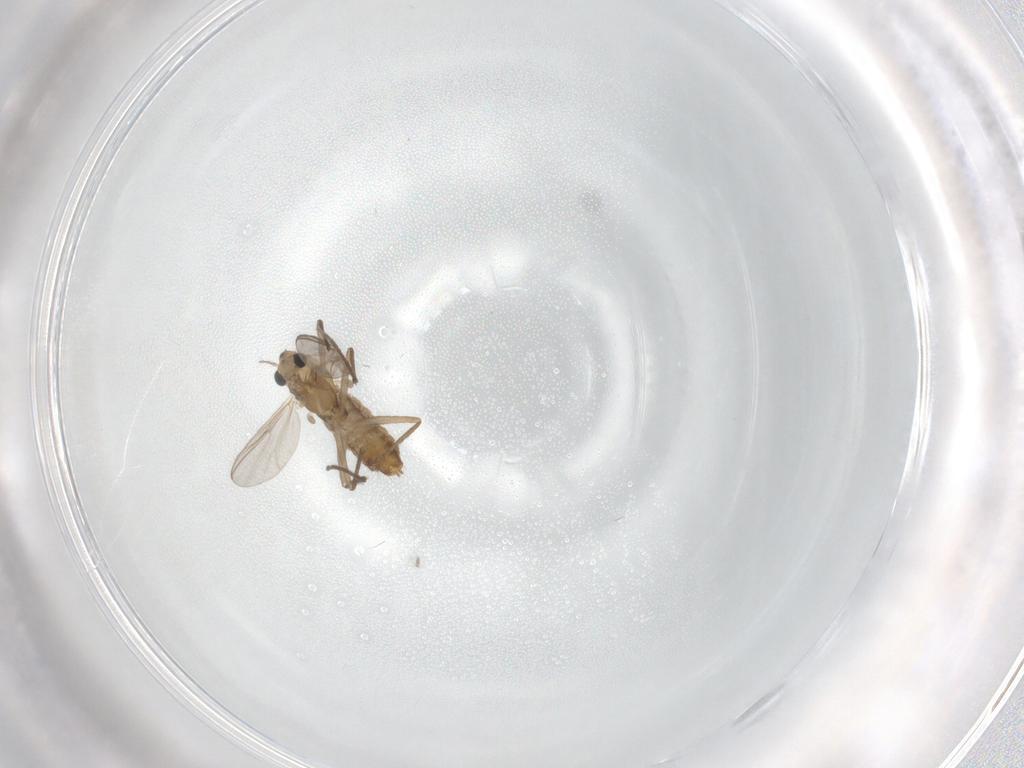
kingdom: Animalia
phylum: Arthropoda
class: Insecta
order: Diptera
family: Chironomidae
